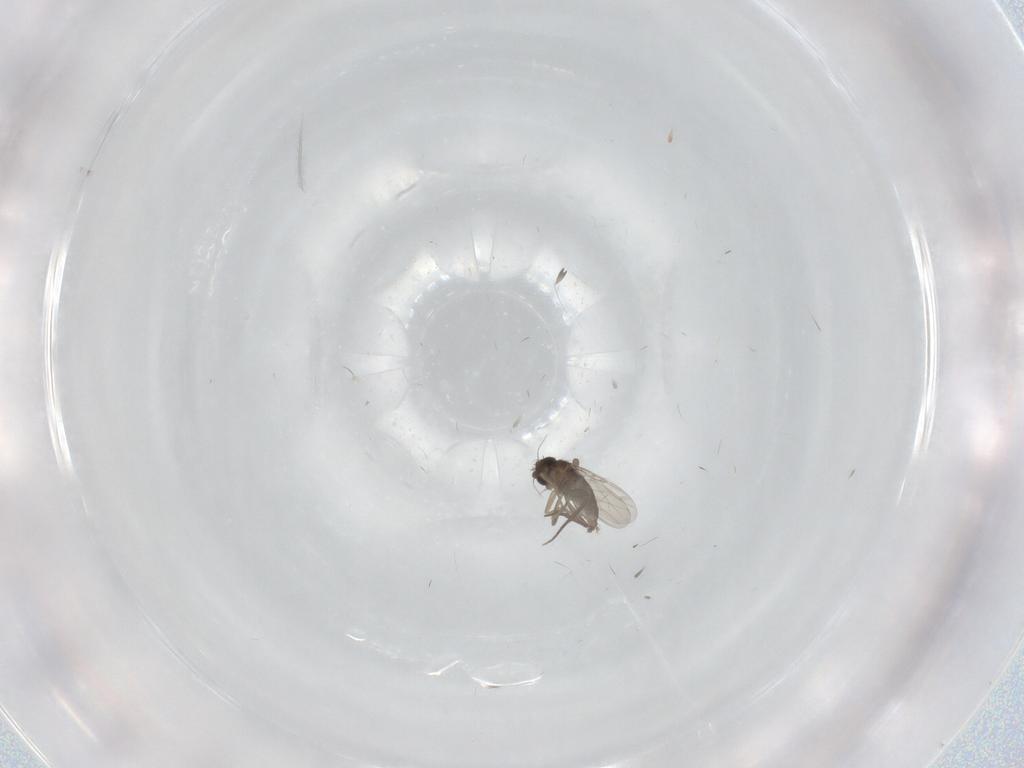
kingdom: Animalia
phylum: Arthropoda
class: Insecta
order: Diptera
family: Phoridae
